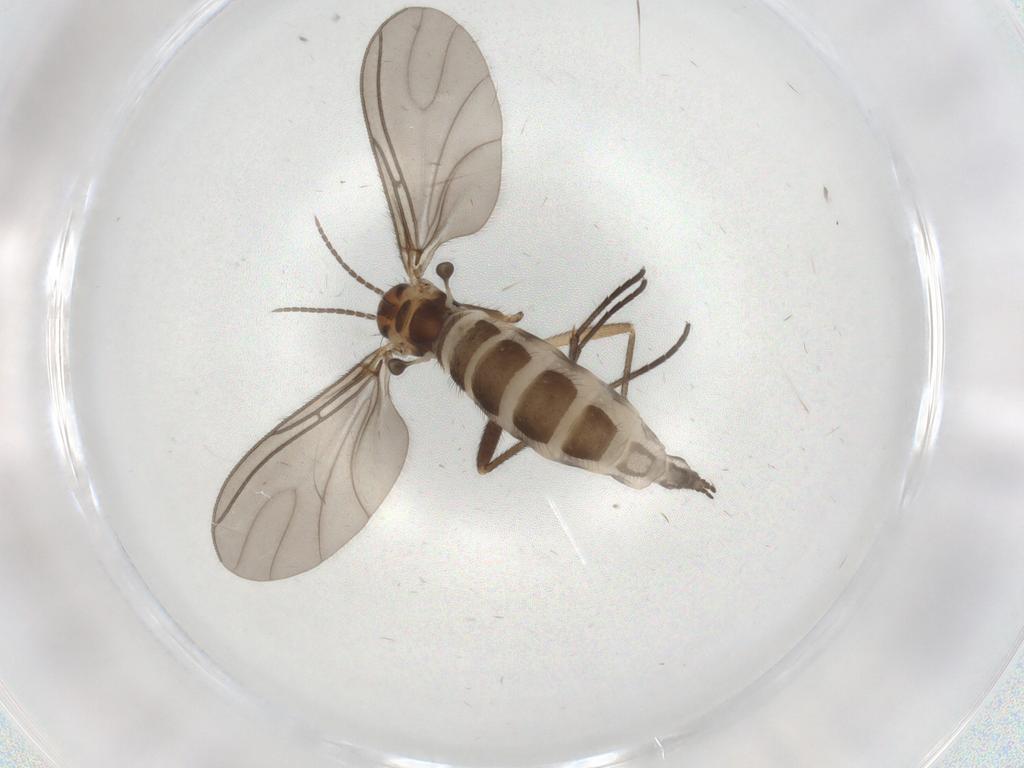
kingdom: Animalia
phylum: Arthropoda
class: Insecta
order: Diptera
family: Sciaridae
